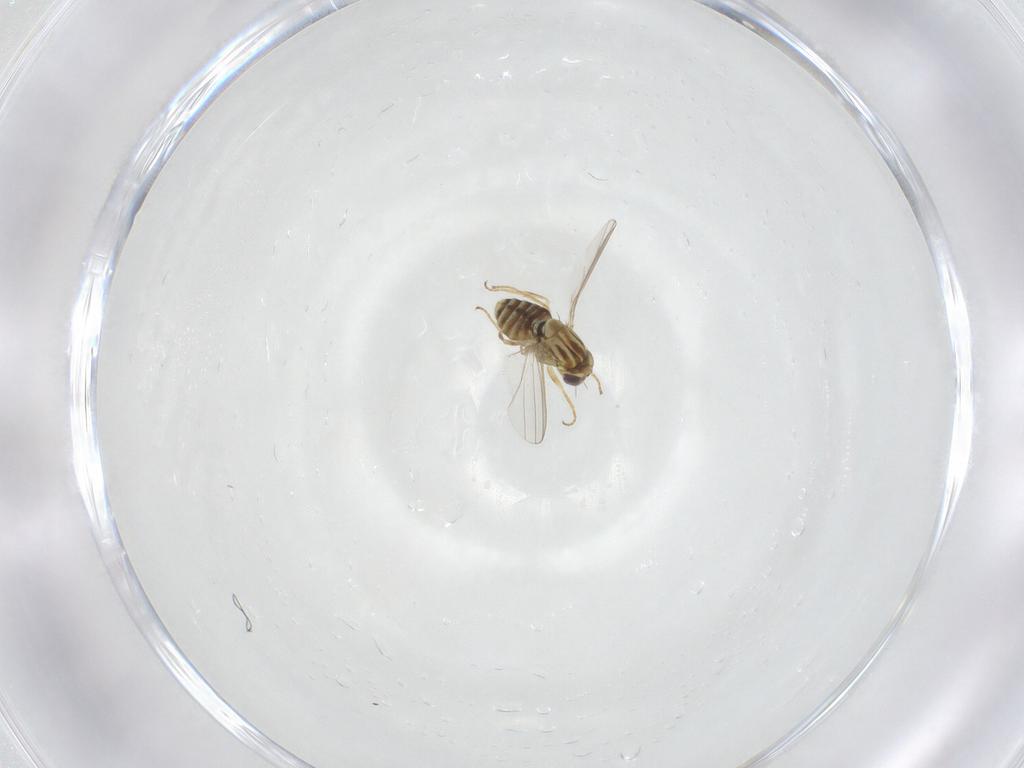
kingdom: Animalia
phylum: Arthropoda
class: Insecta
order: Diptera
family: Chyromyidae
